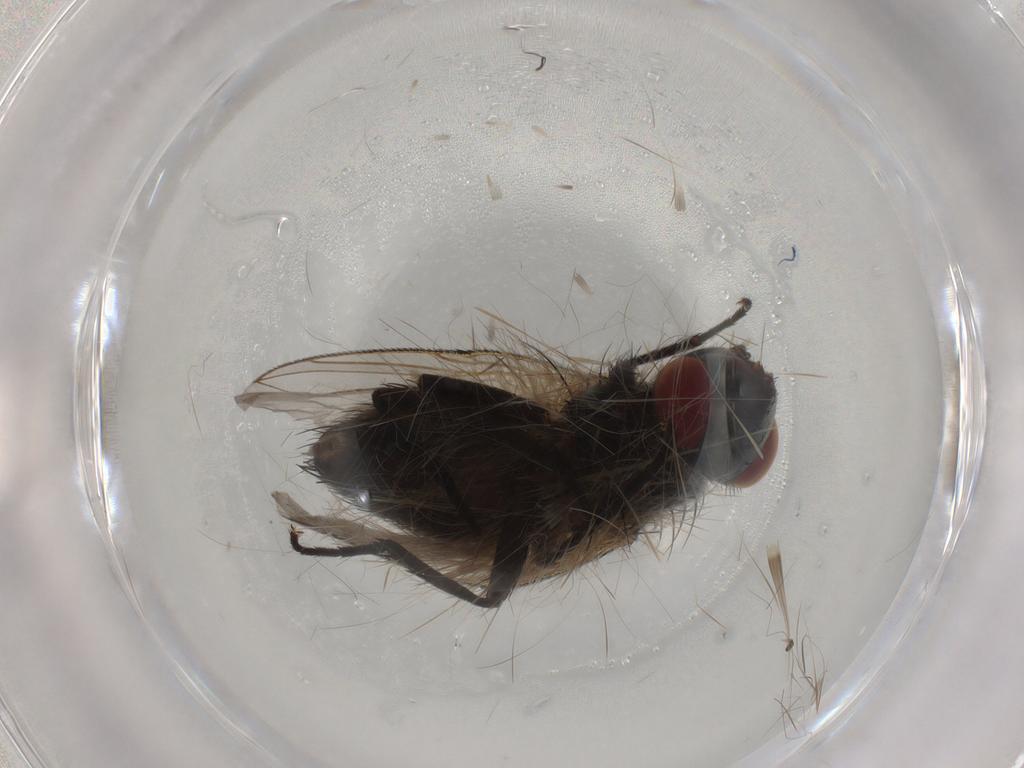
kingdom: Animalia
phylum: Arthropoda
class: Insecta
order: Diptera
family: Sarcophagidae
